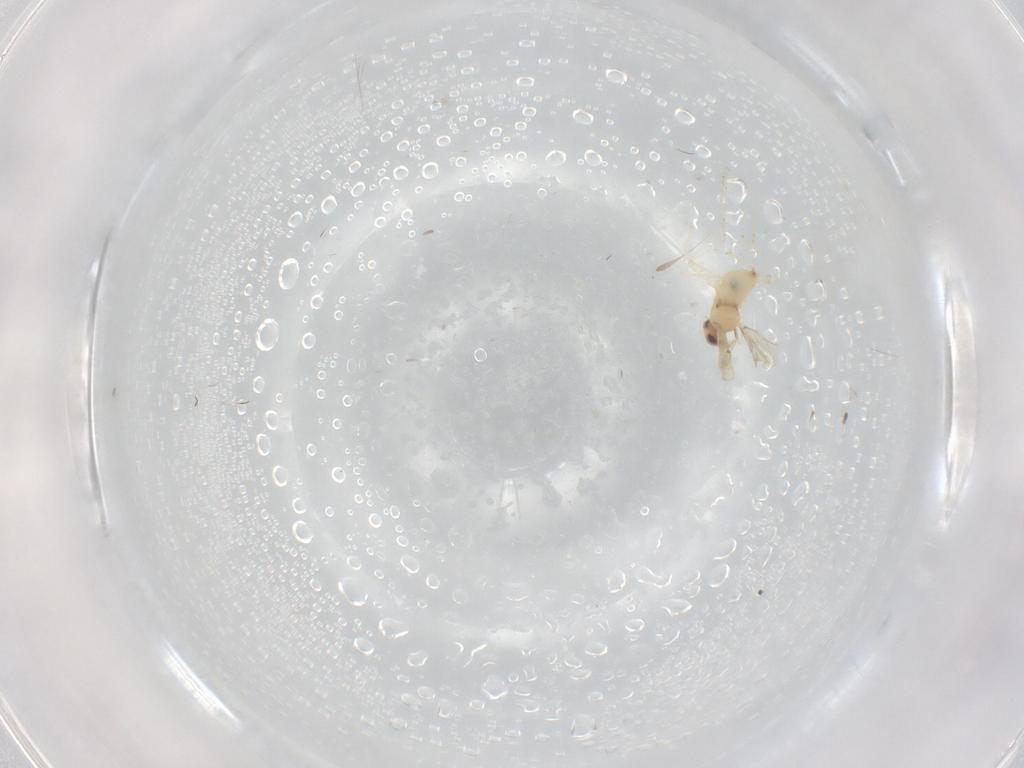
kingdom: Animalia
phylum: Arthropoda
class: Insecta
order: Diptera
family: Cecidomyiidae
